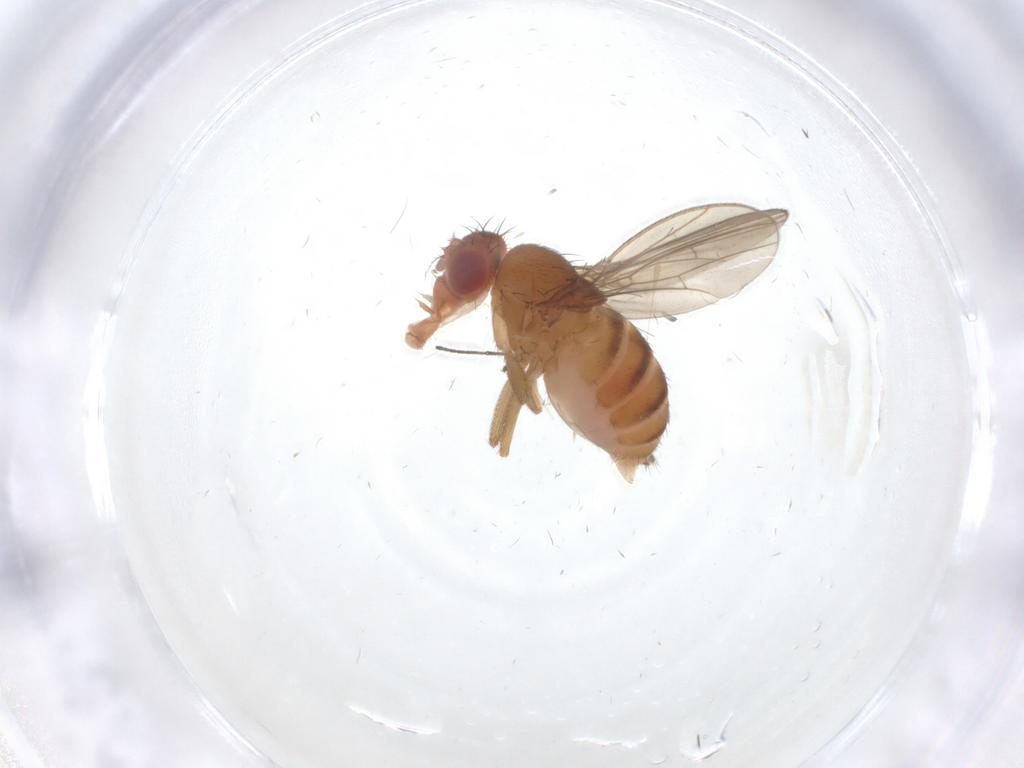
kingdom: Animalia
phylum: Arthropoda
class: Insecta
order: Diptera
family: Drosophilidae
